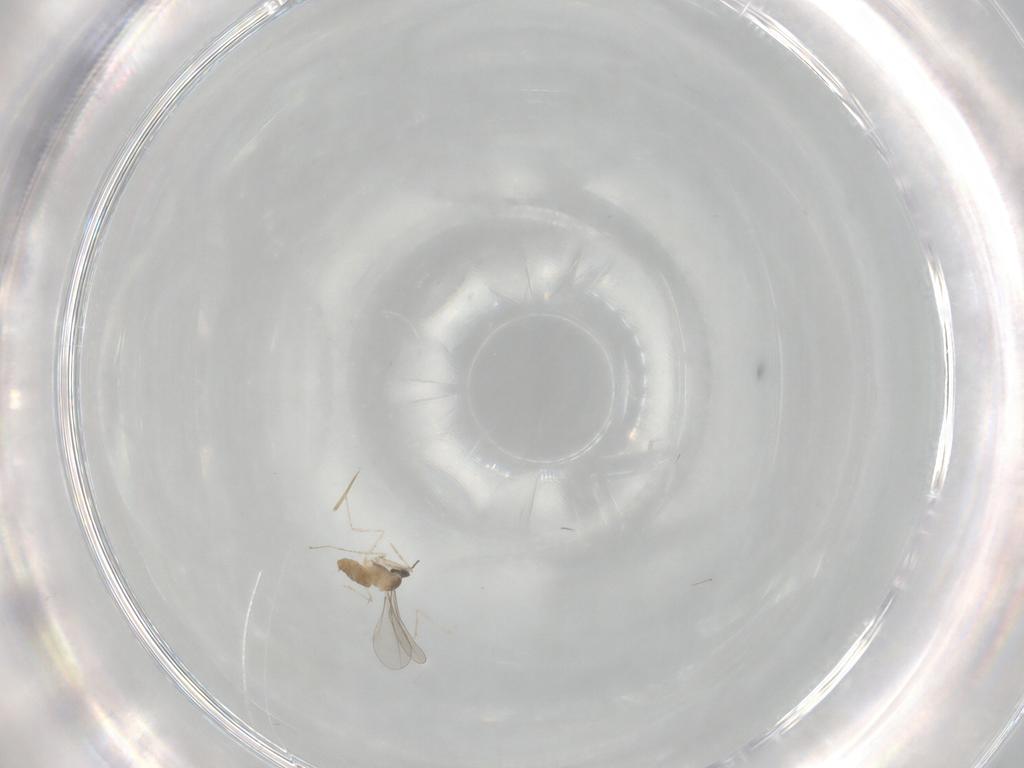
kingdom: Animalia
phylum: Arthropoda
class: Insecta
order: Diptera
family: Cecidomyiidae
